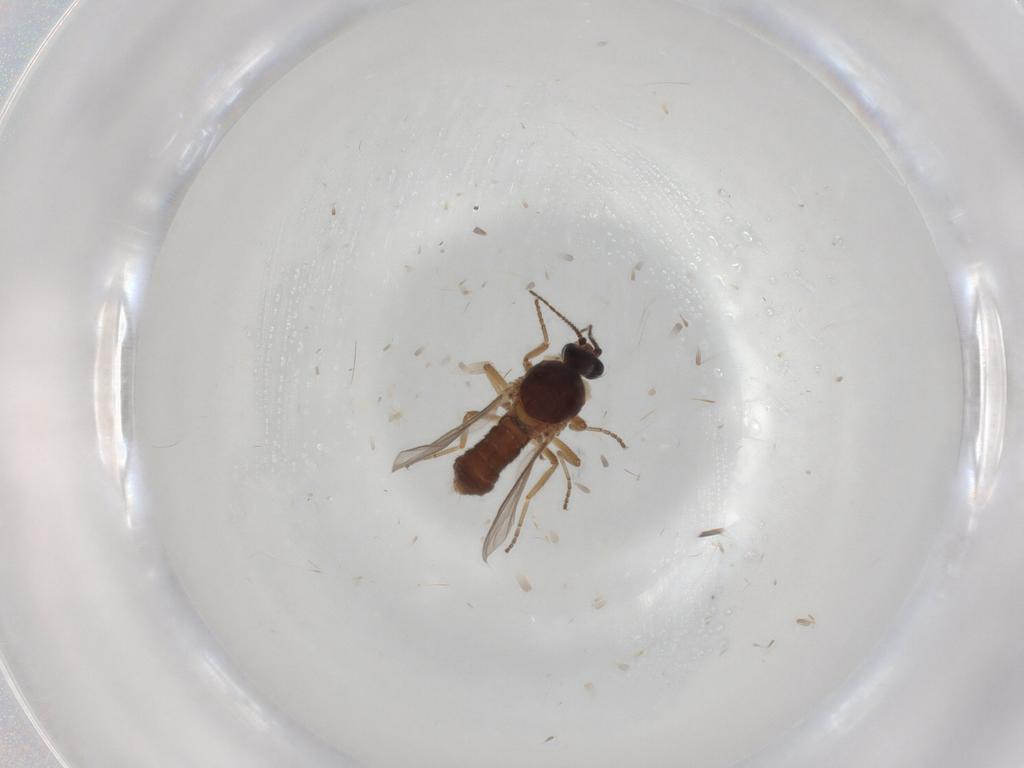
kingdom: Animalia
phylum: Arthropoda
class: Insecta
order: Diptera
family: Ceratopogonidae
